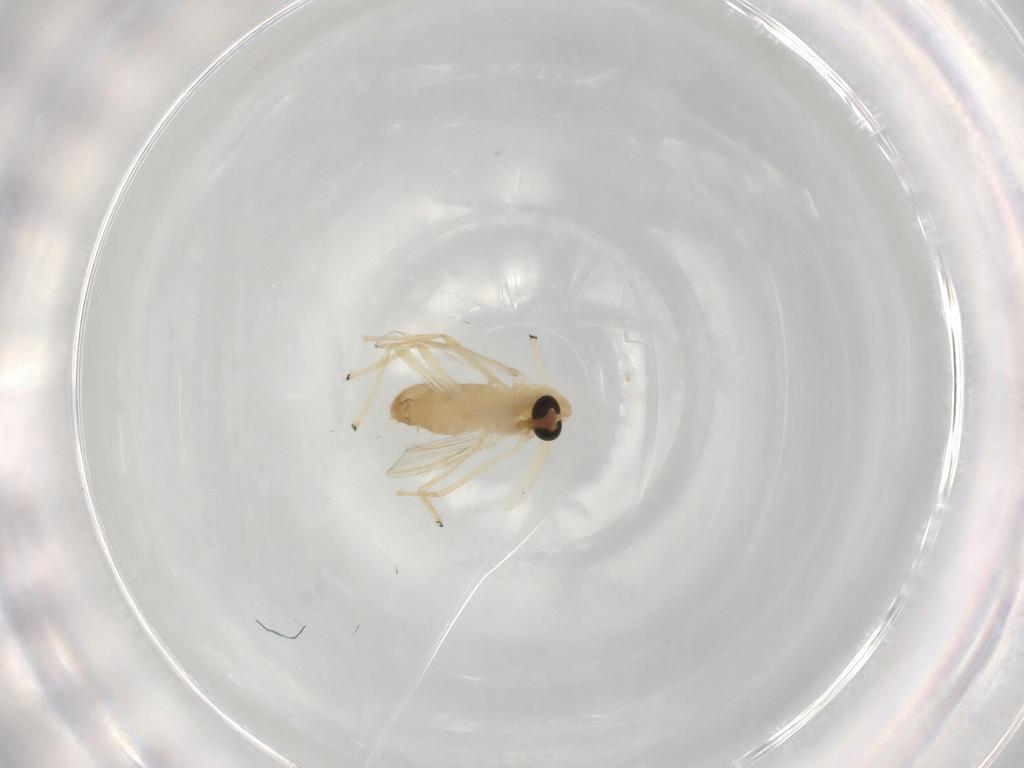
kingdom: Animalia
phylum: Arthropoda
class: Insecta
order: Diptera
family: Chironomidae
